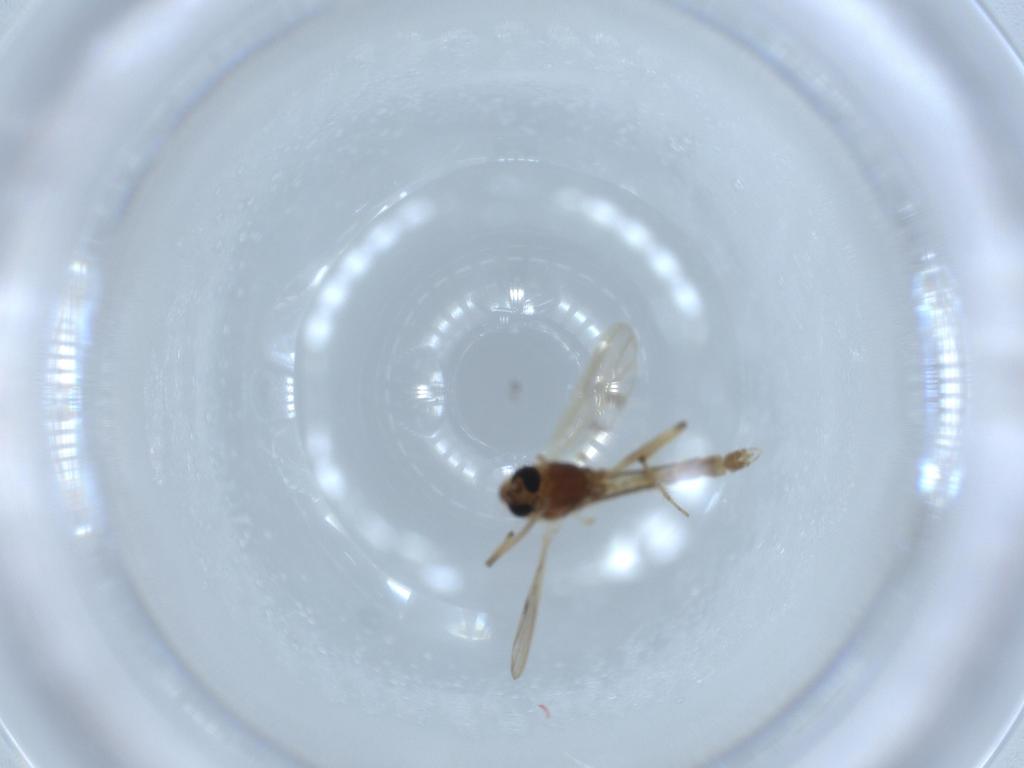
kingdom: Animalia
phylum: Arthropoda
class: Insecta
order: Diptera
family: Chironomidae
